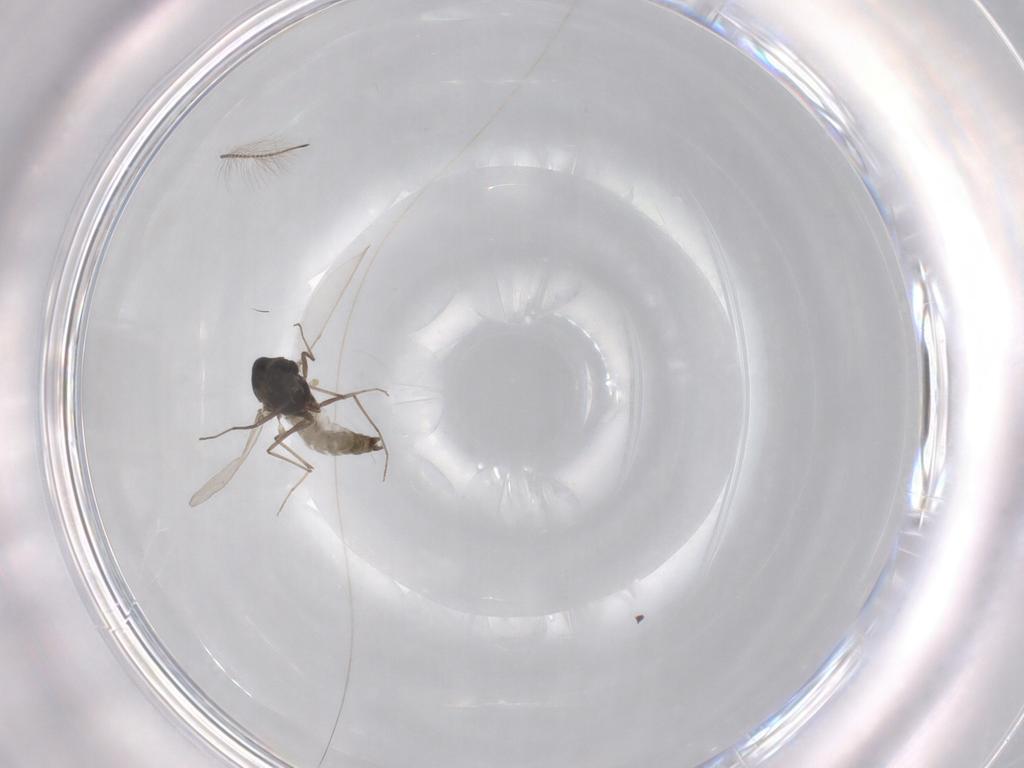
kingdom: Animalia
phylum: Arthropoda
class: Insecta
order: Diptera
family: Chironomidae
